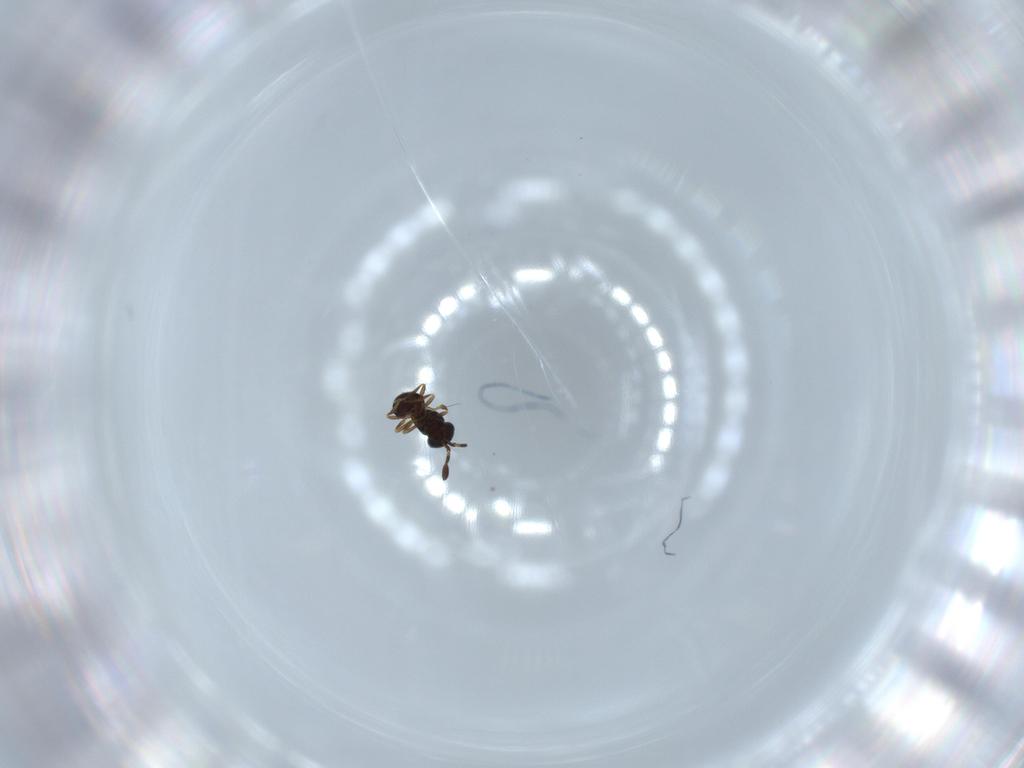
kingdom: Animalia
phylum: Arthropoda
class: Insecta
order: Hymenoptera
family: Scelionidae
